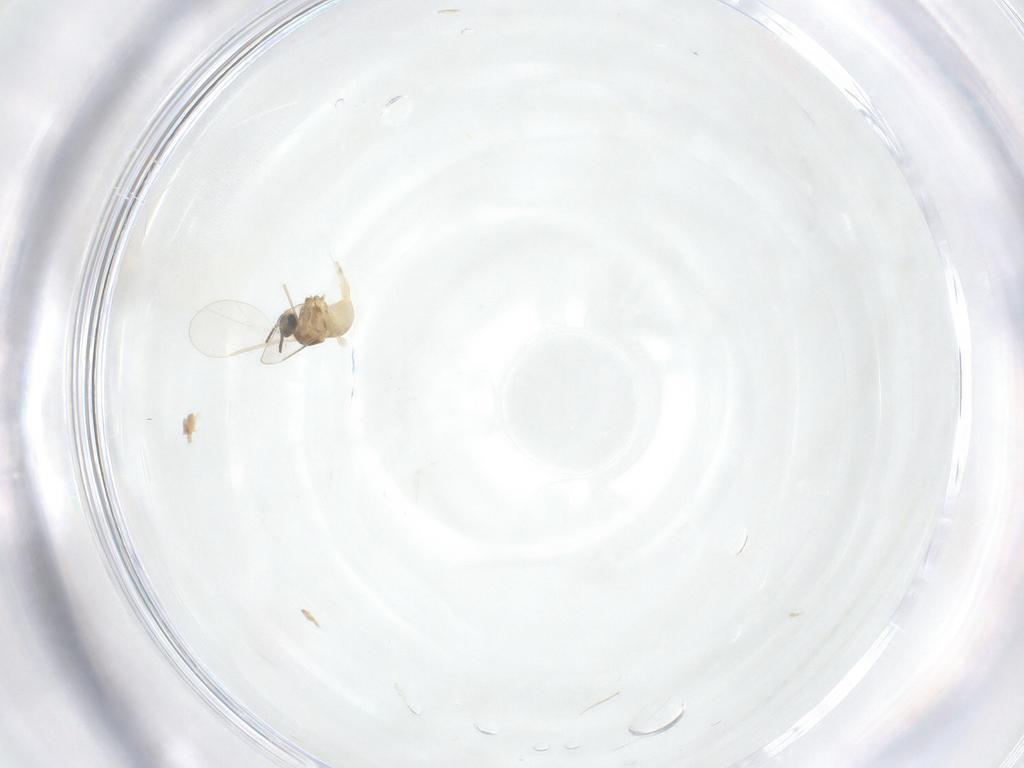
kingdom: Animalia
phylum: Arthropoda
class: Insecta
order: Diptera
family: Cecidomyiidae
